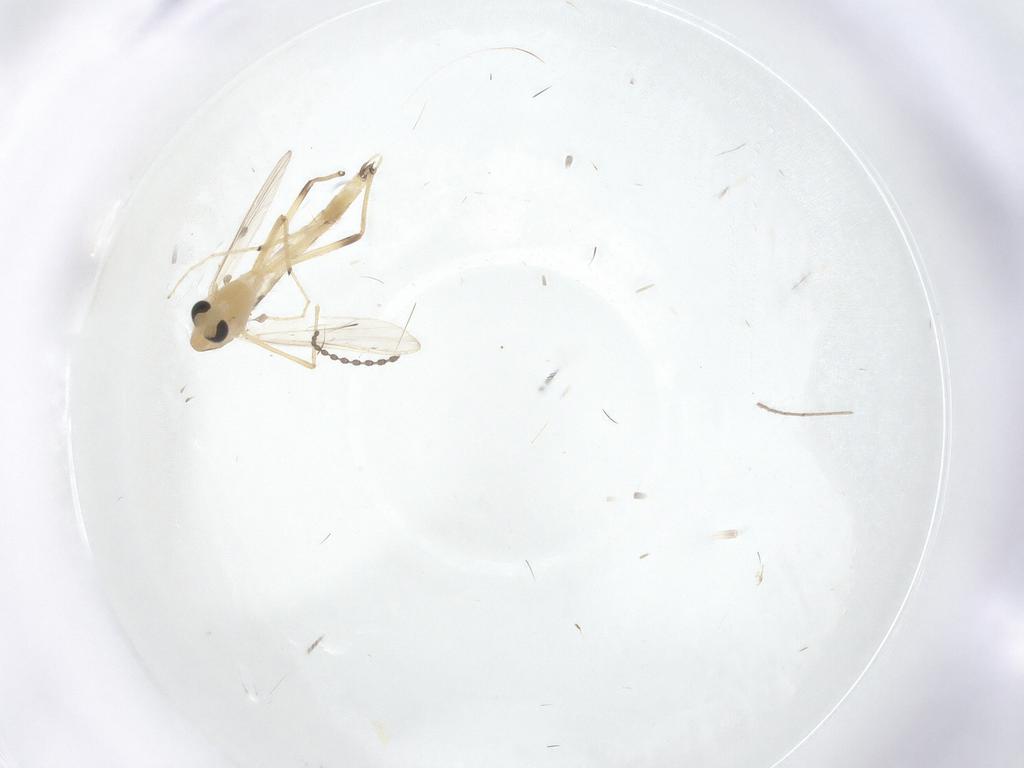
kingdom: Animalia
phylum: Arthropoda
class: Insecta
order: Diptera
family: Chironomidae
